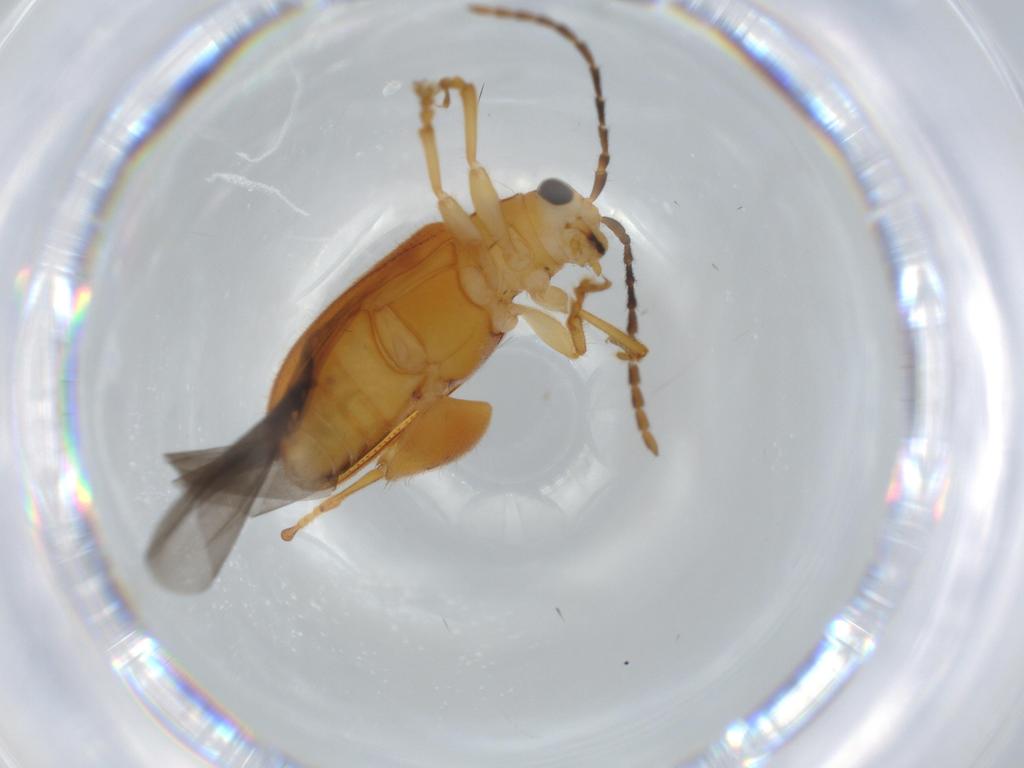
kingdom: Animalia
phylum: Arthropoda
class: Insecta
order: Coleoptera
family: Chrysomelidae
